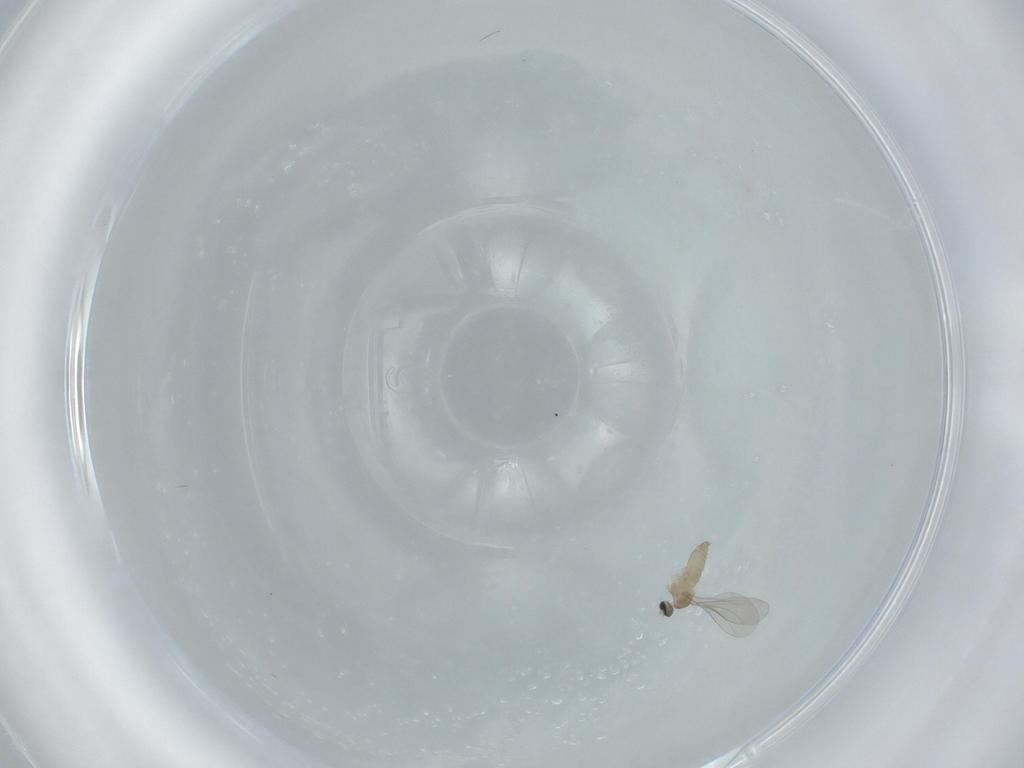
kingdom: Animalia
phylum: Arthropoda
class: Insecta
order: Diptera
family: Cecidomyiidae
